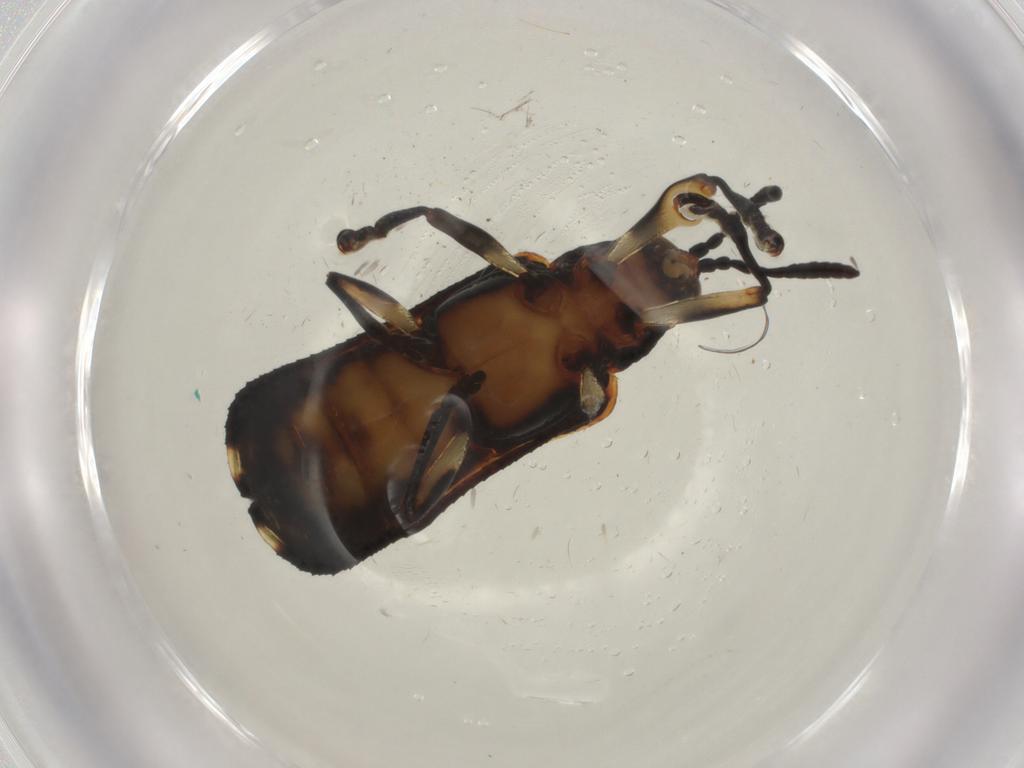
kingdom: Animalia
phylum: Arthropoda
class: Insecta
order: Coleoptera
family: Chrysomelidae
